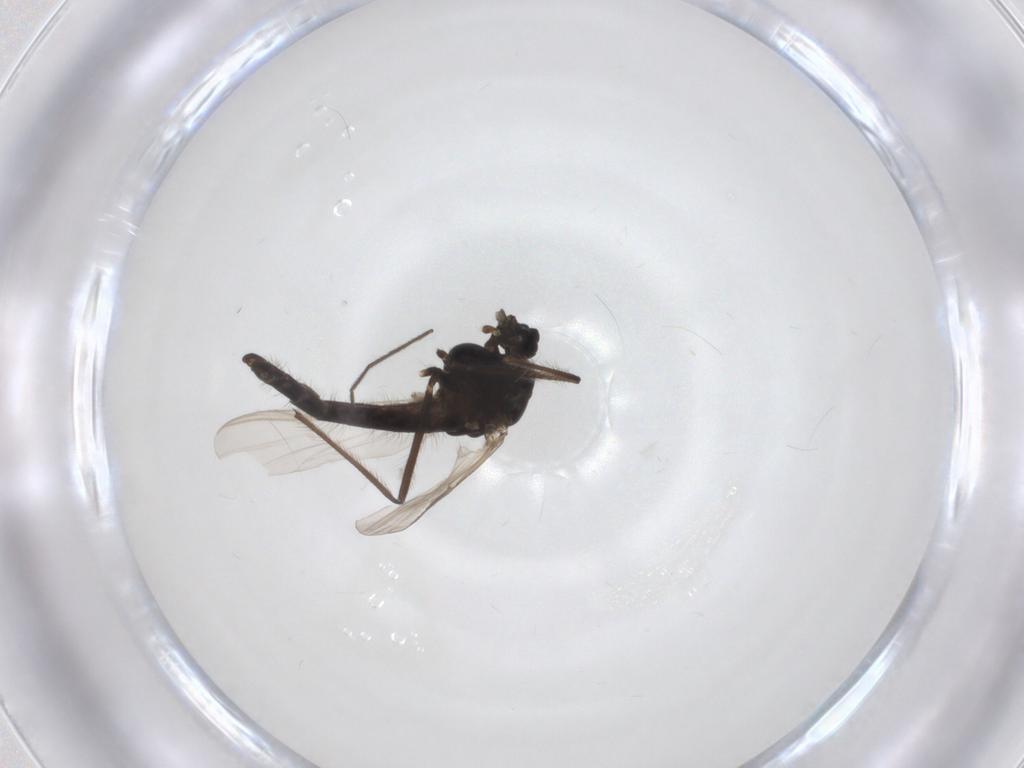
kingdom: Animalia
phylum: Arthropoda
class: Insecta
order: Diptera
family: Chironomidae
